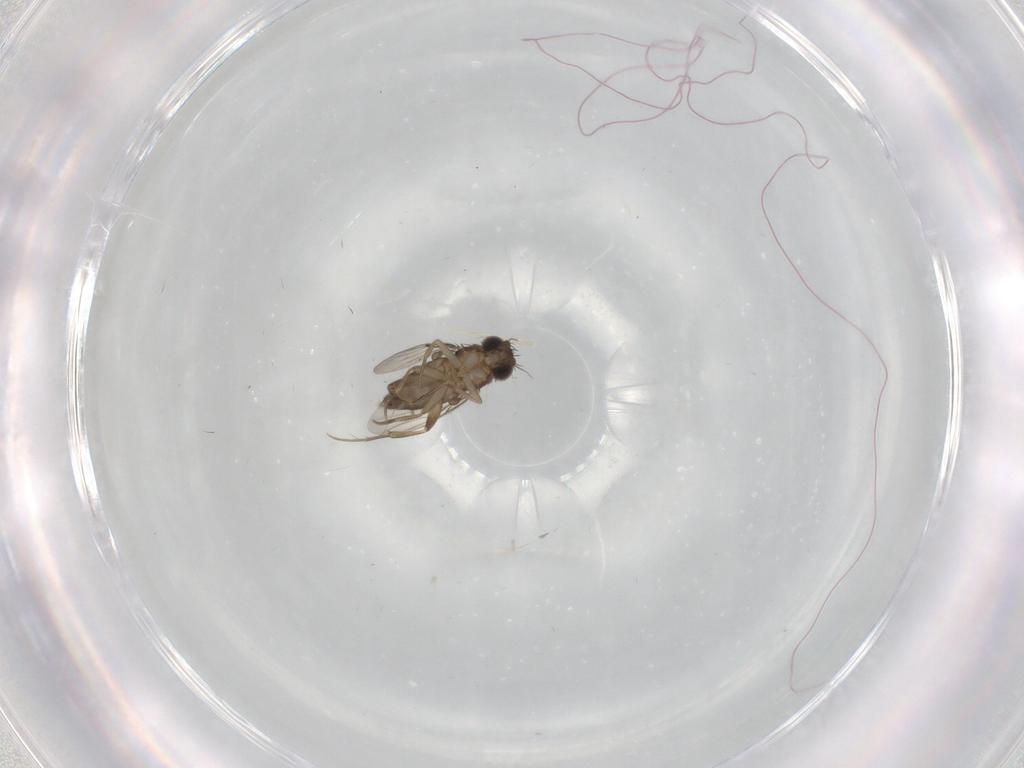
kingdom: Animalia
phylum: Arthropoda
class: Insecta
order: Diptera
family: Phoridae
